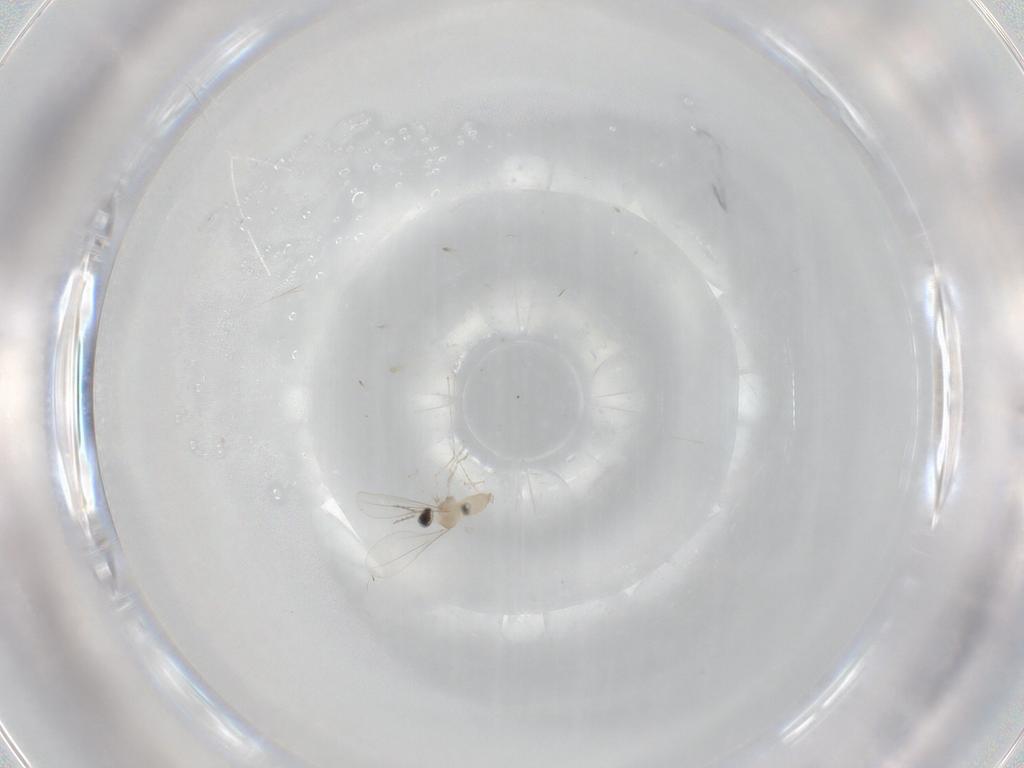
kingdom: Animalia
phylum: Arthropoda
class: Insecta
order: Diptera
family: Cecidomyiidae
